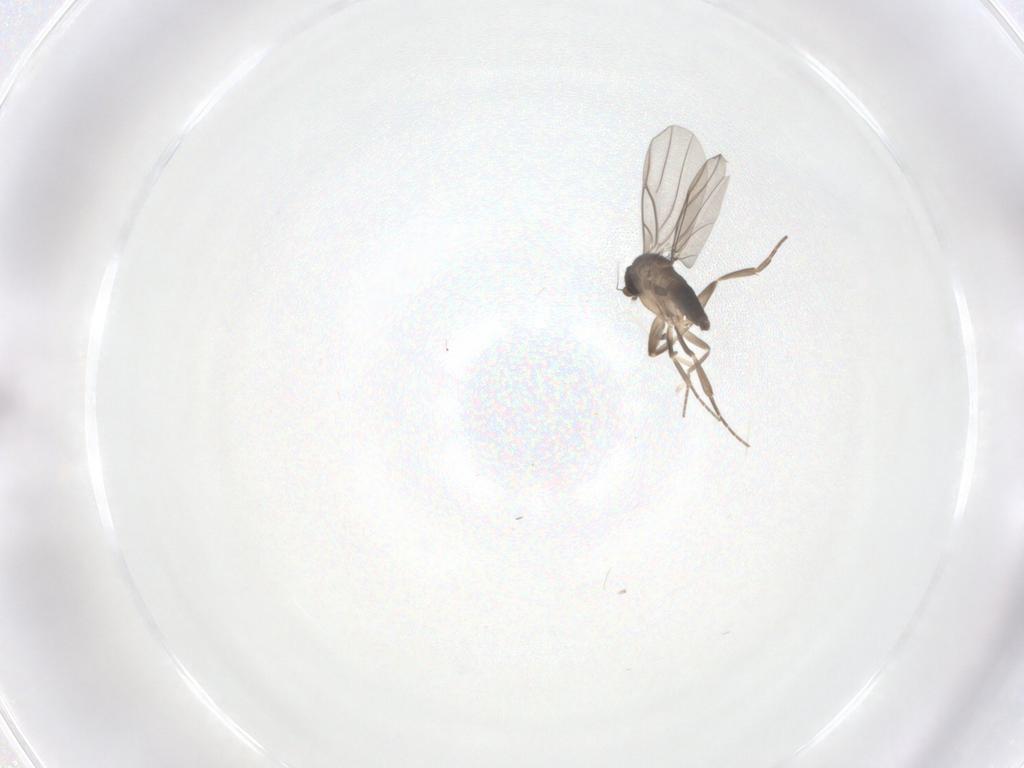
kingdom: Animalia
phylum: Arthropoda
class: Insecta
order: Diptera
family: Phoridae
